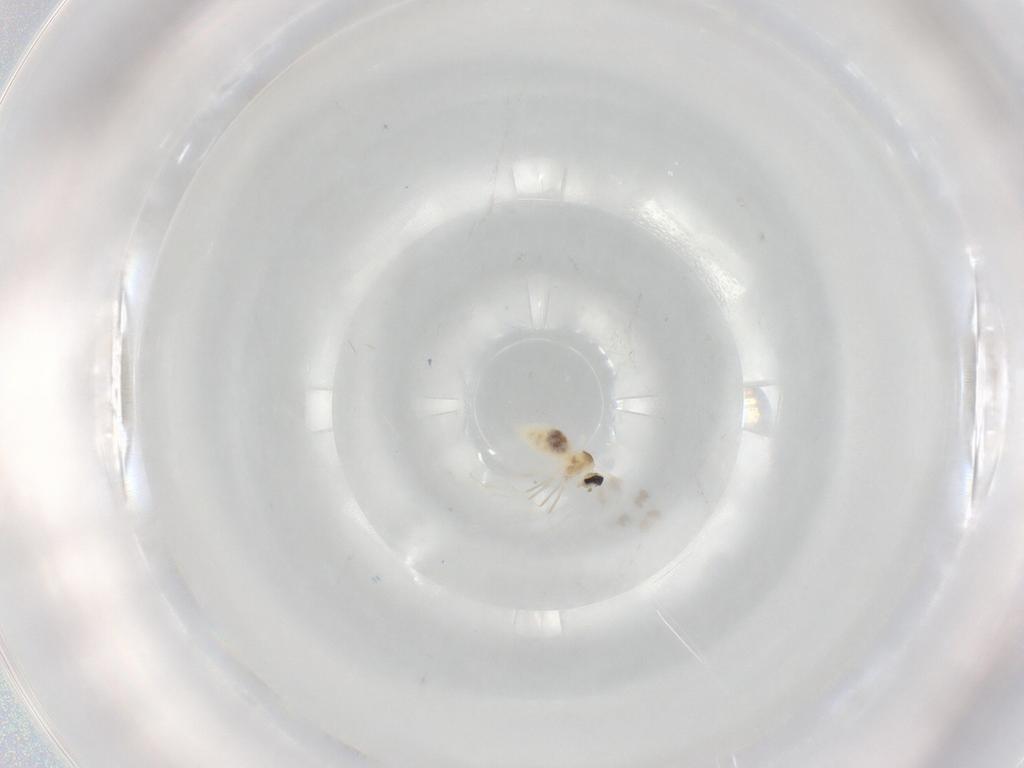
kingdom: Animalia
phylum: Arthropoda
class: Insecta
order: Diptera
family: Cecidomyiidae
